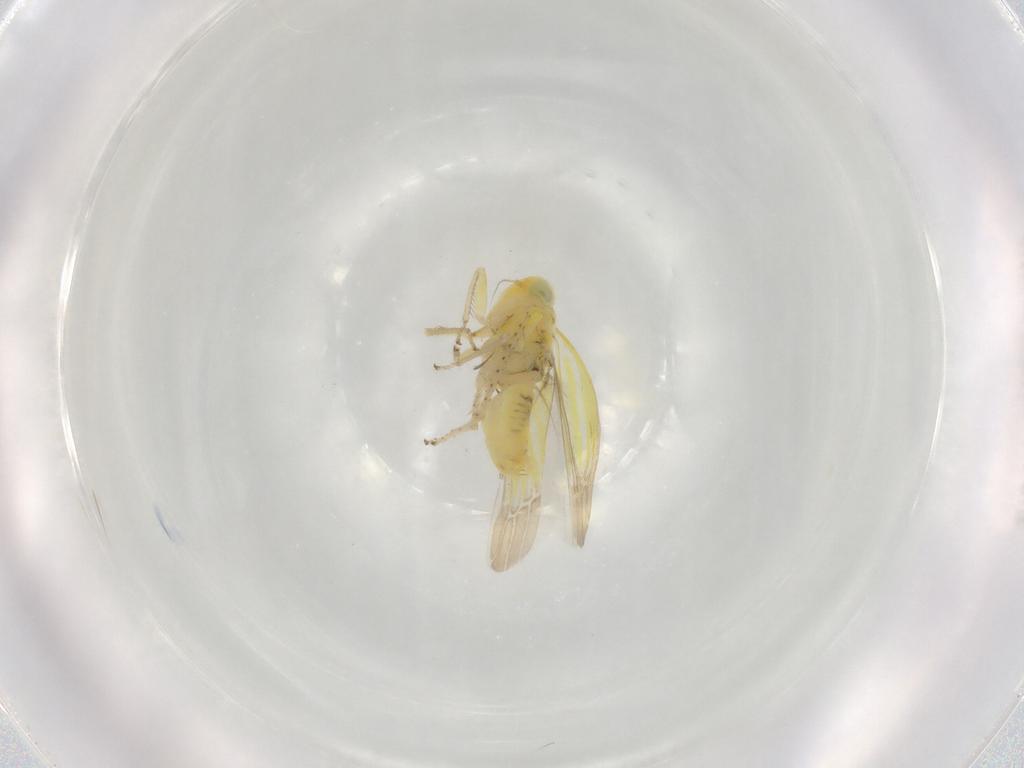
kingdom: Animalia
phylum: Arthropoda
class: Insecta
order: Hemiptera
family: Cicadellidae
